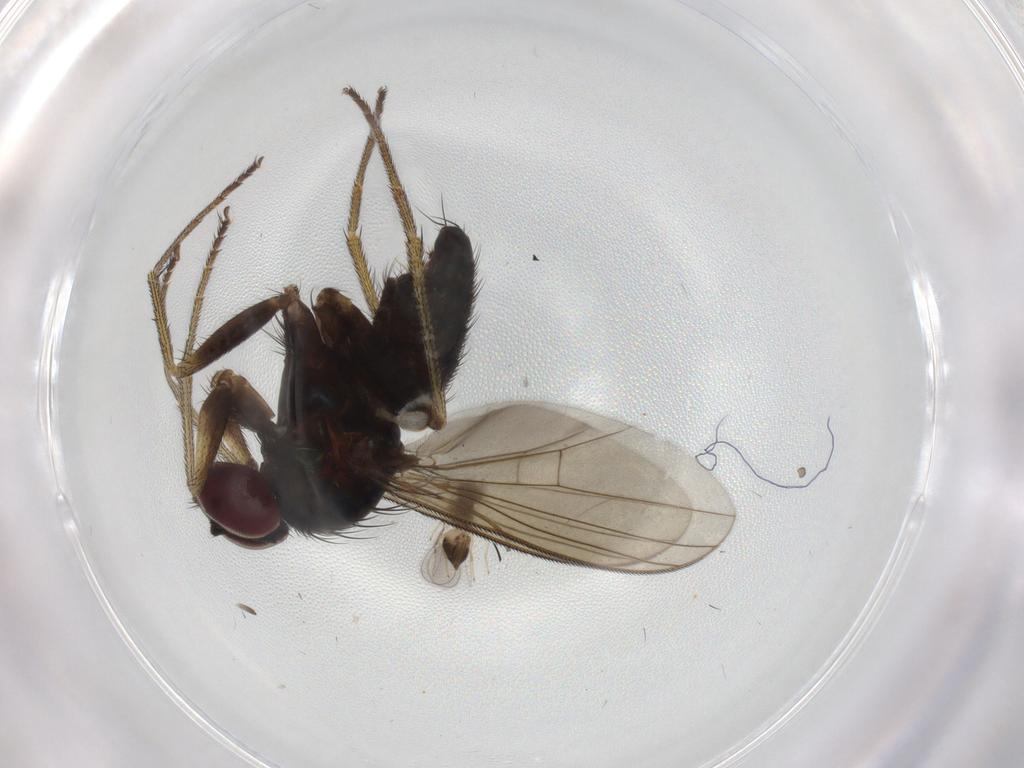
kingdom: Animalia
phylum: Arthropoda
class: Insecta
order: Diptera
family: Dolichopodidae
